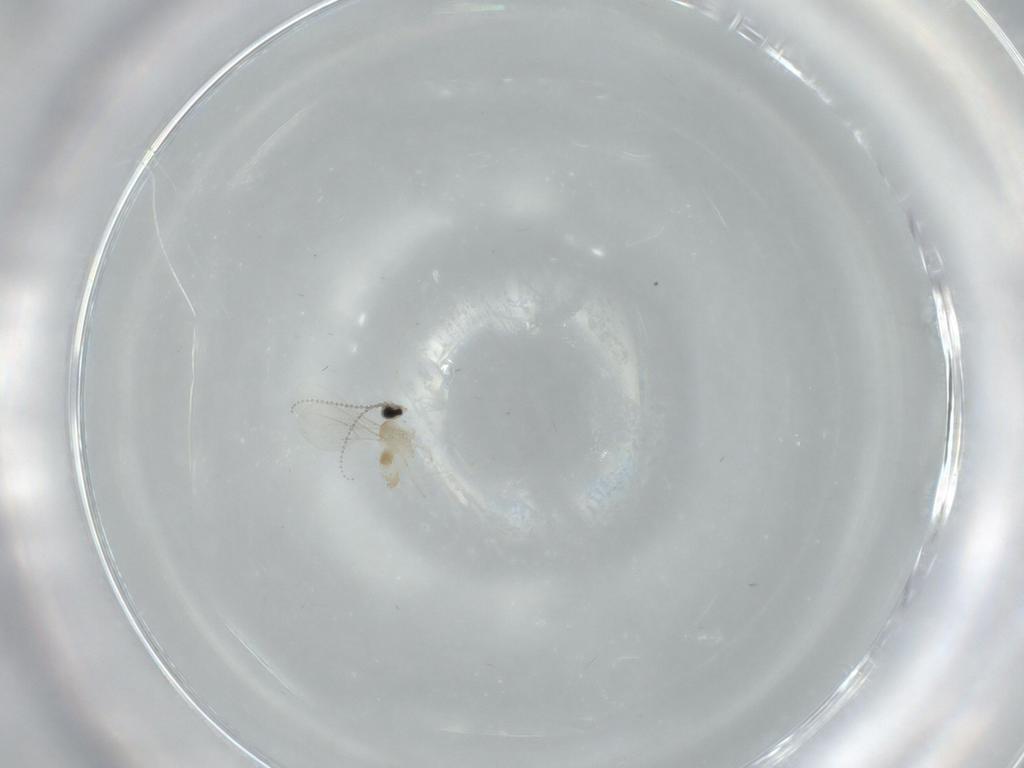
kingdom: Animalia
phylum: Arthropoda
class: Insecta
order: Diptera
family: Cecidomyiidae
